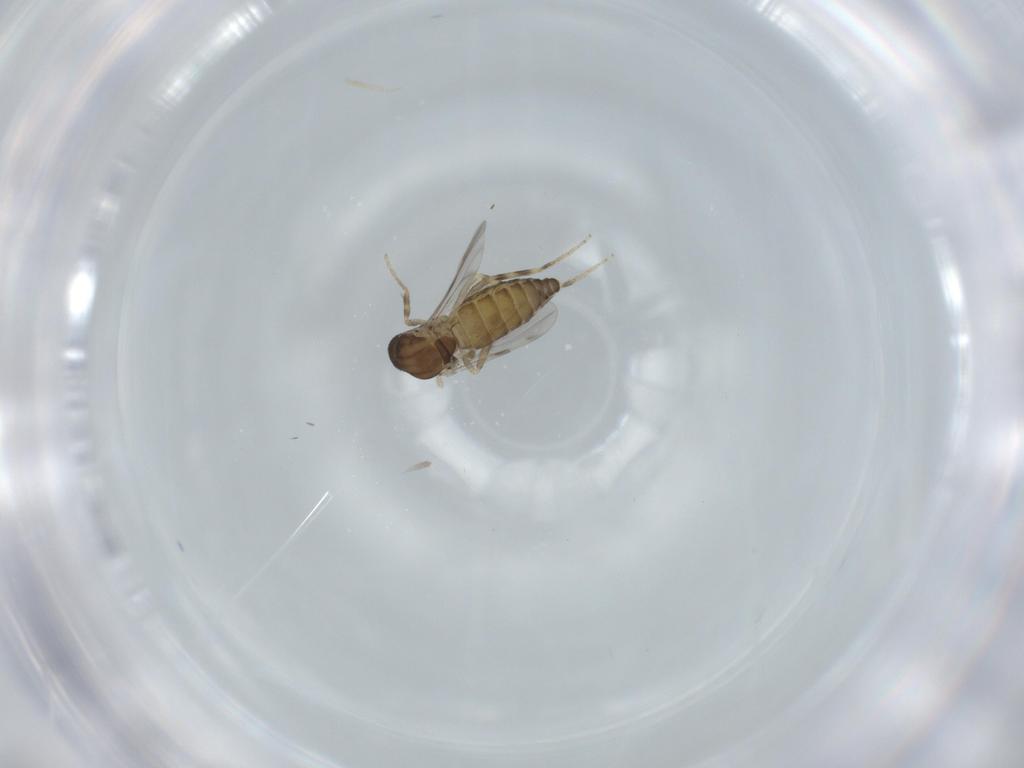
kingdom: Animalia
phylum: Arthropoda
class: Insecta
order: Diptera
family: Ceratopogonidae
